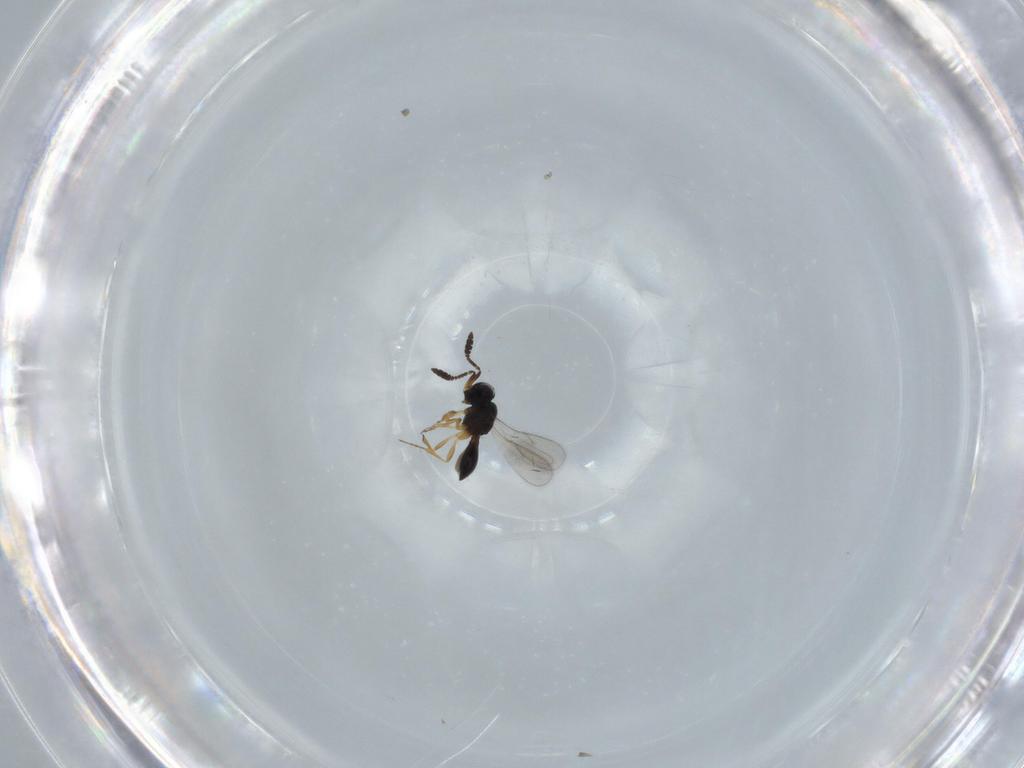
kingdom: Animalia
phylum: Arthropoda
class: Insecta
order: Hymenoptera
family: Scelionidae
